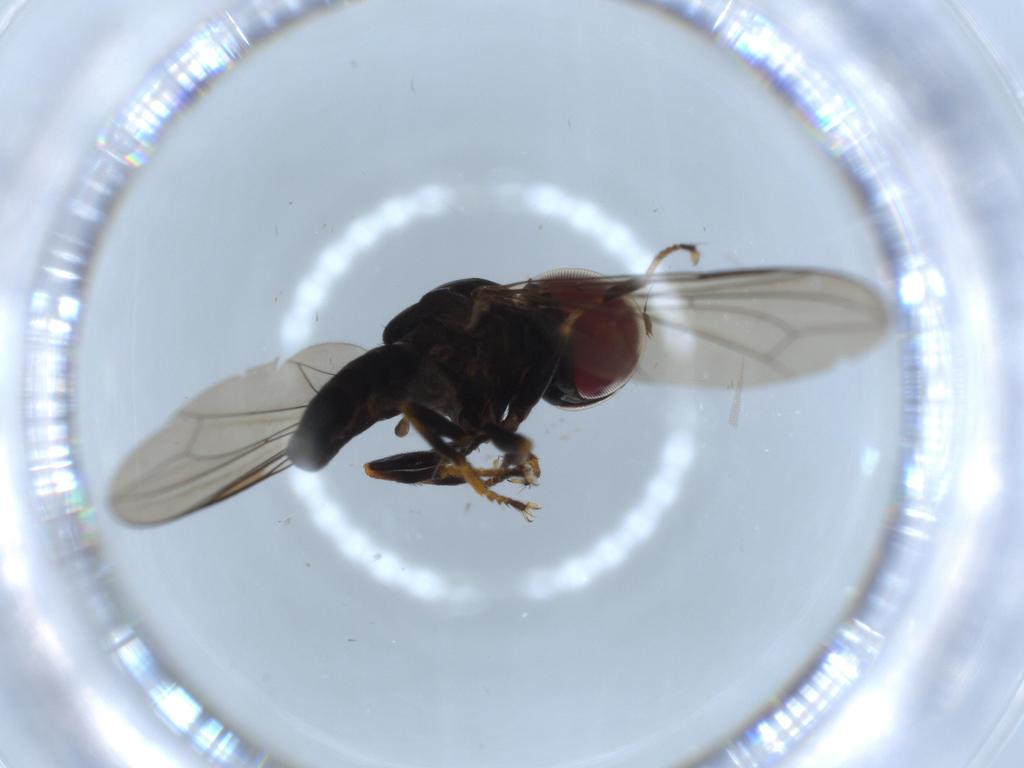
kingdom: Animalia
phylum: Arthropoda
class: Insecta
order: Diptera
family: Pipunculidae
